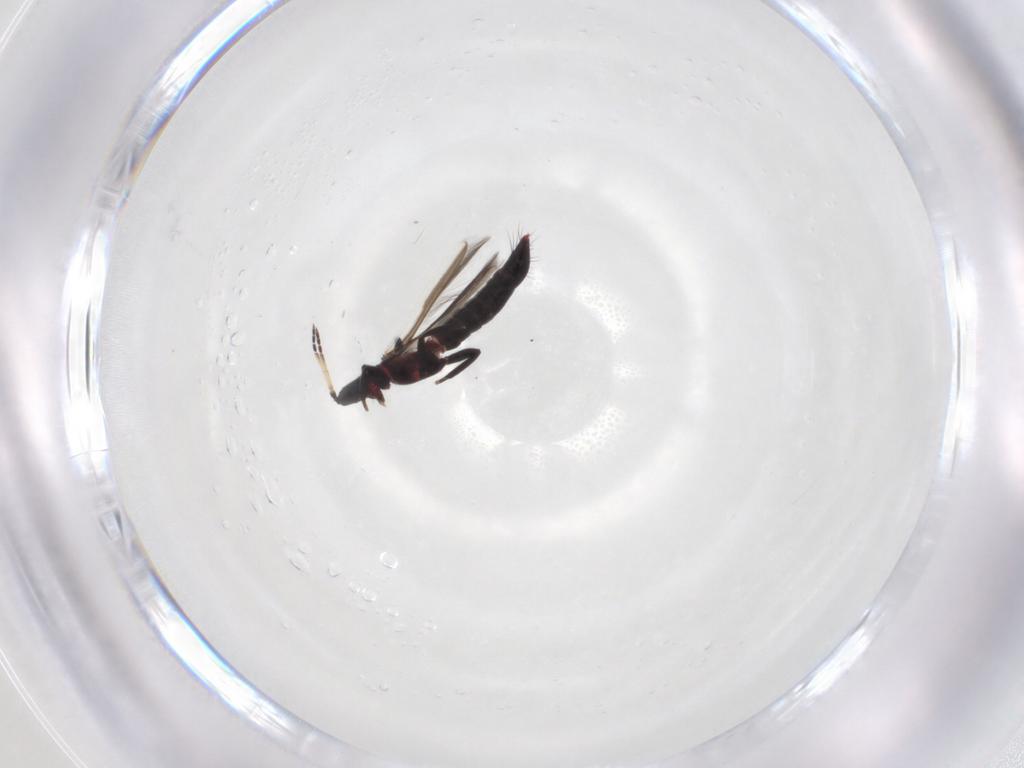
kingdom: Animalia
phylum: Arthropoda
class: Insecta
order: Thysanoptera
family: Aeolothripidae
